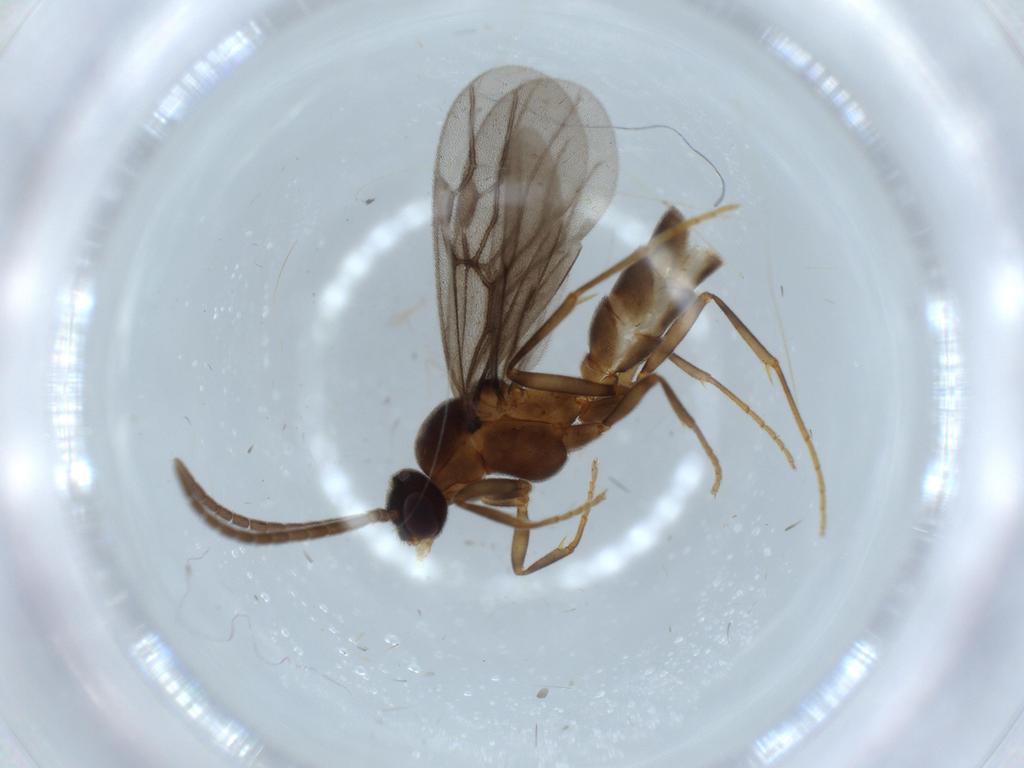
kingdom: Animalia
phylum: Arthropoda
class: Insecta
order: Hymenoptera
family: Formicidae
